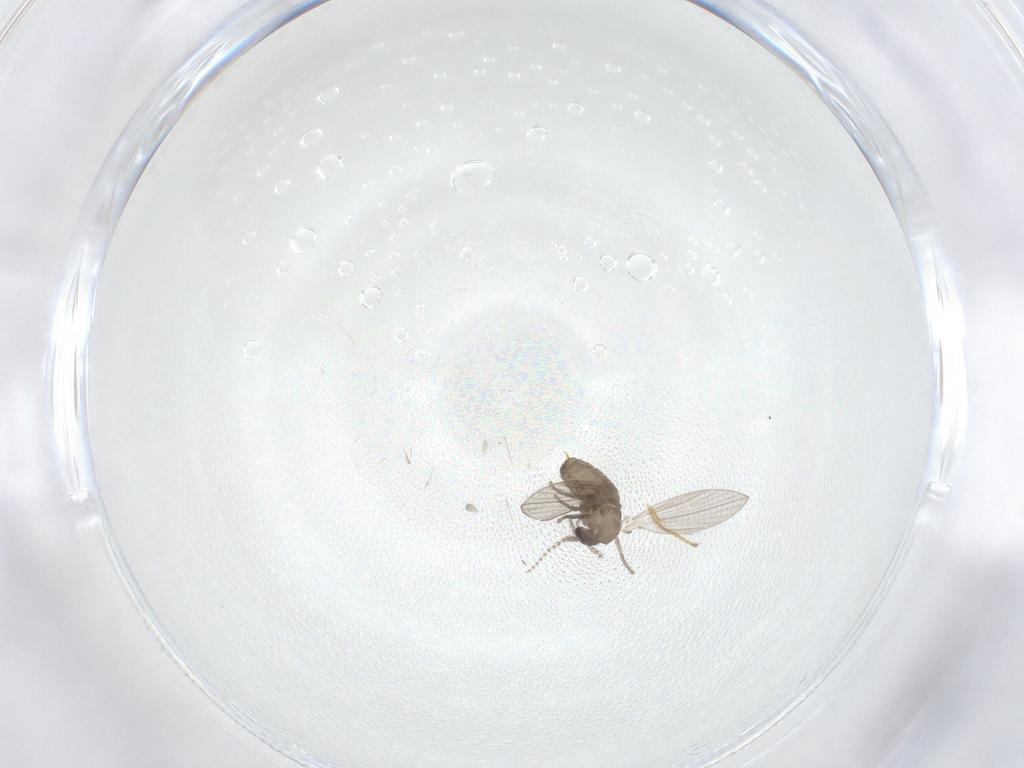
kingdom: Animalia
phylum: Arthropoda
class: Insecta
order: Diptera
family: Psychodidae
